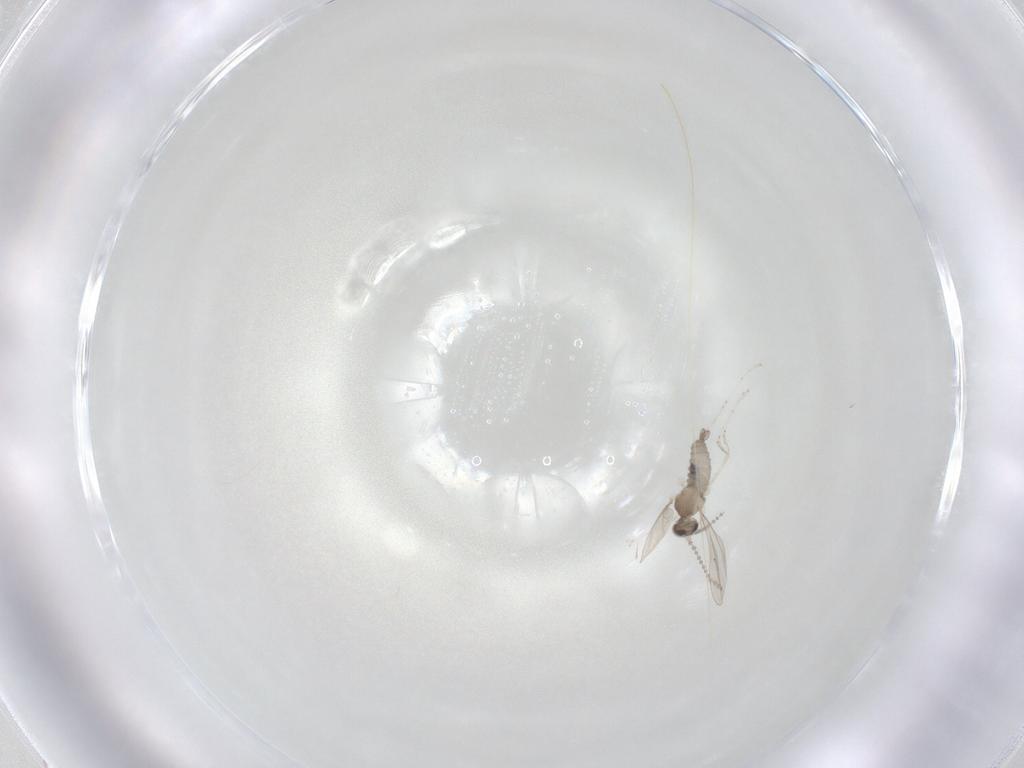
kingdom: Animalia
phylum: Arthropoda
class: Insecta
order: Diptera
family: Cecidomyiidae
